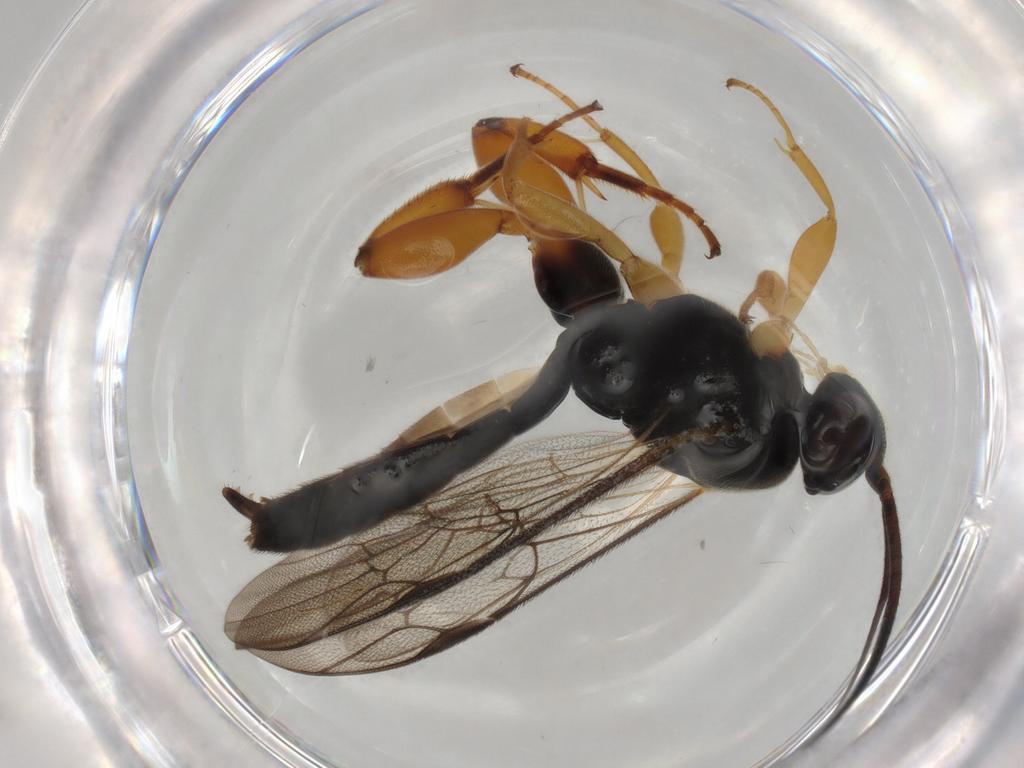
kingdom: Animalia
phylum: Arthropoda
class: Insecta
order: Hymenoptera
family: Ichneumonidae
